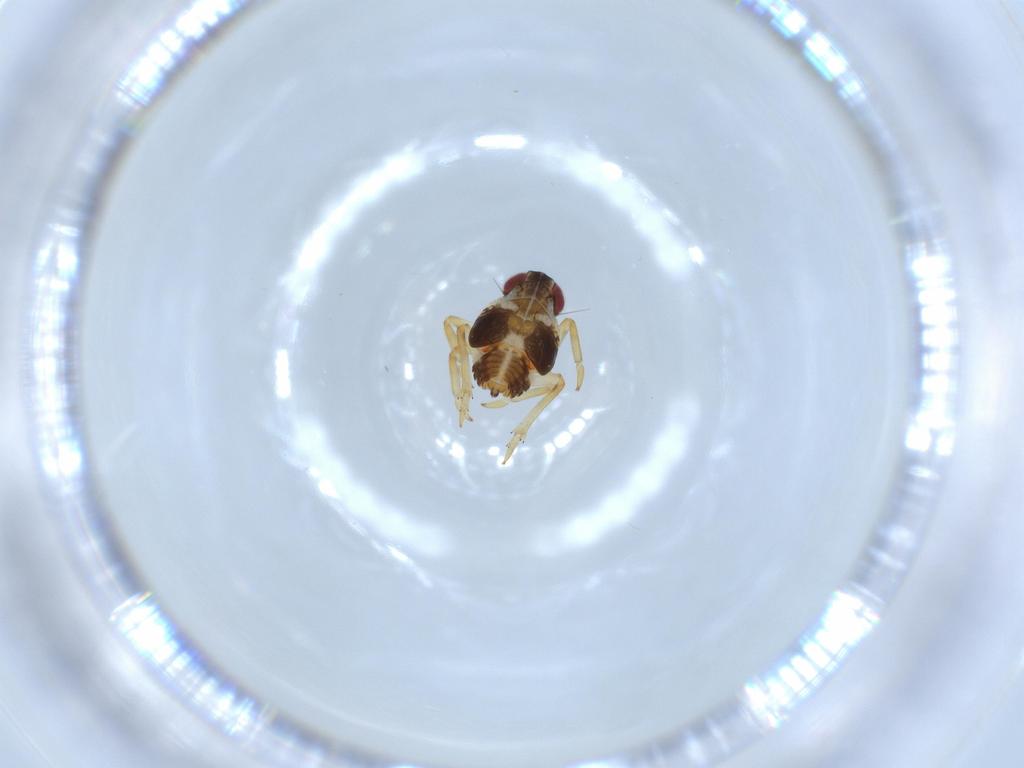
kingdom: Animalia
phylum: Arthropoda
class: Insecta
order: Hemiptera
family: Issidae
